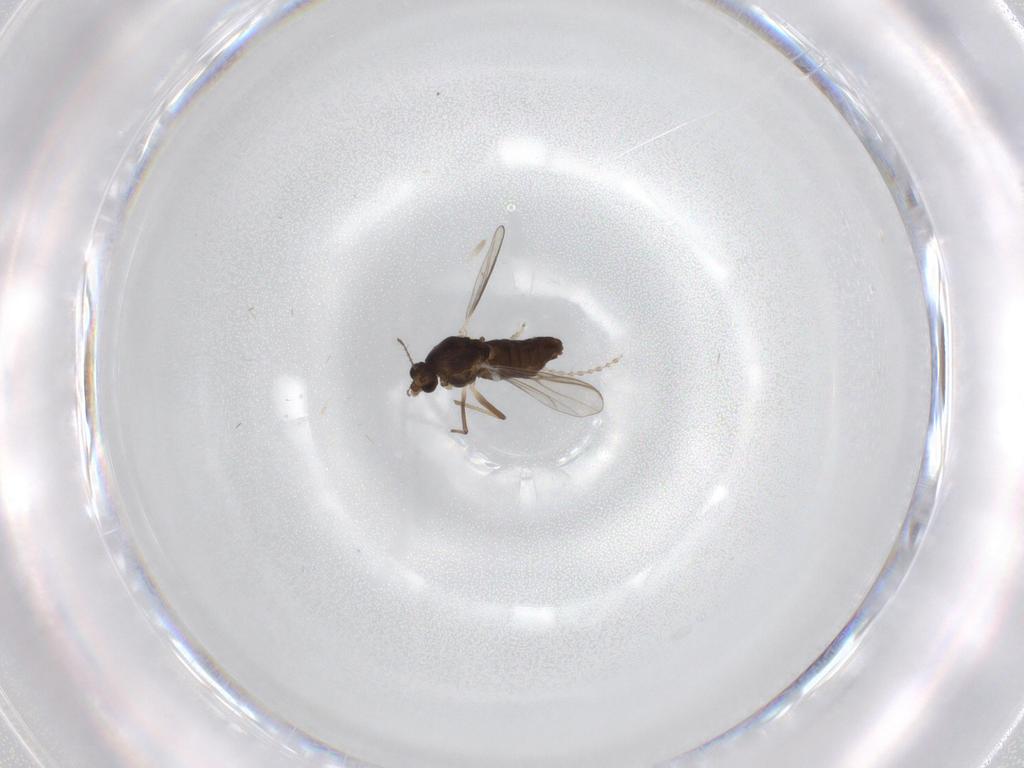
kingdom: Animalia
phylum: Arthropoda
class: Insecta
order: Diptera
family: Chironomidae
